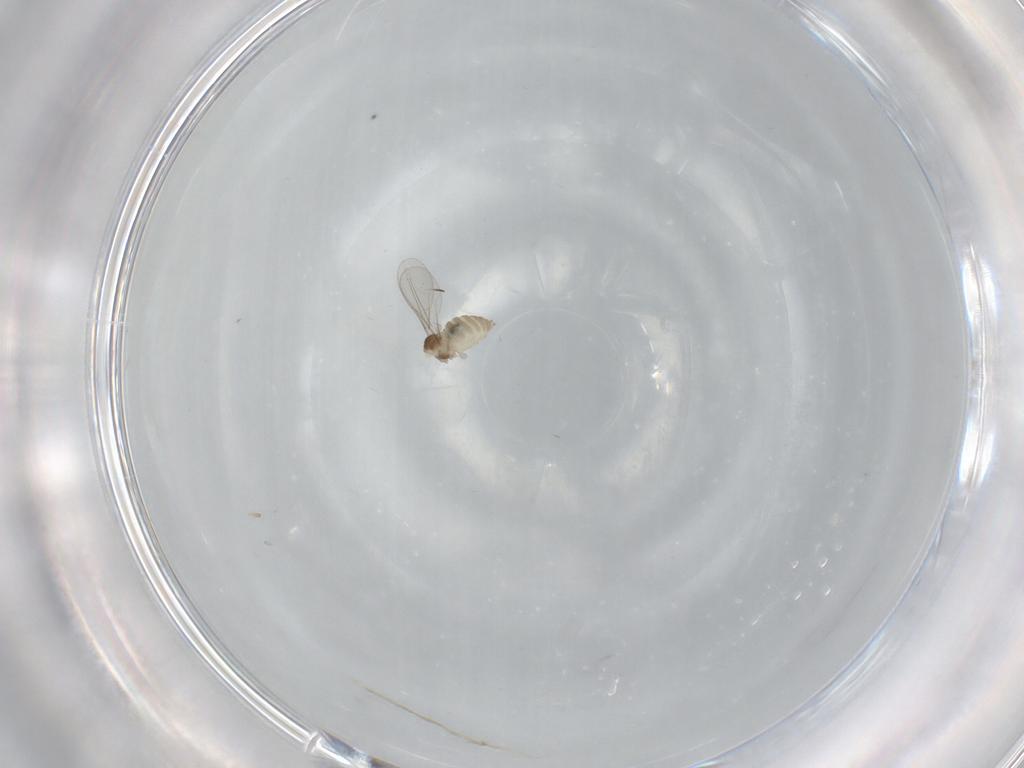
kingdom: Animalia
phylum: Arthropoda
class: Insecta
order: Diptera
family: Cecidomyiidae
